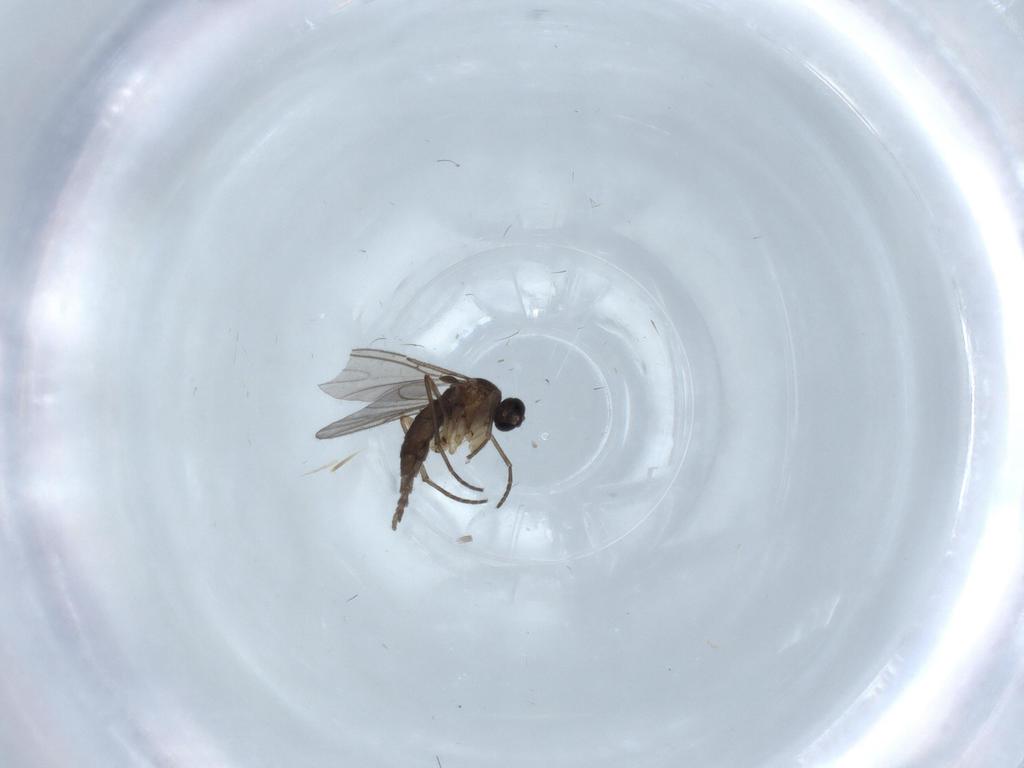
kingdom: Animalia
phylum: Arthropoda
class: Insecta
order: Diptera
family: Sciaridae
